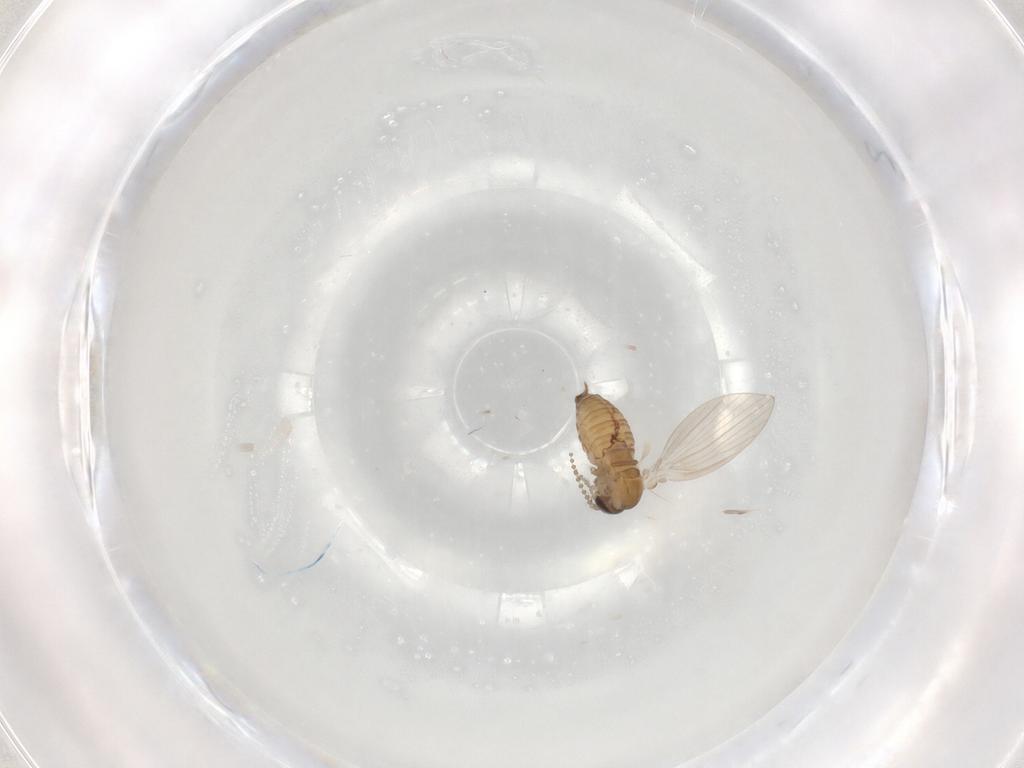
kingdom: Animalia
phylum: Arthropoda
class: Insecta
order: Diptera
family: Psychodidae
